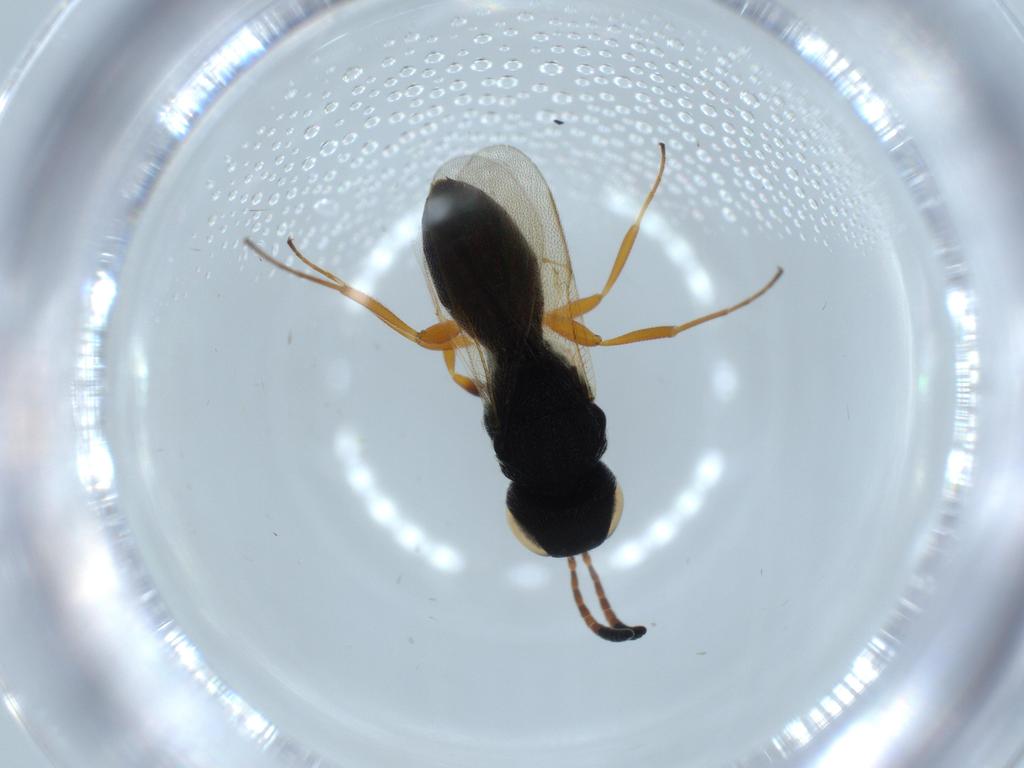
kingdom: Animalia
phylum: Arthropoda
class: Insecta
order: Hymenoptera
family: Scelionidae
